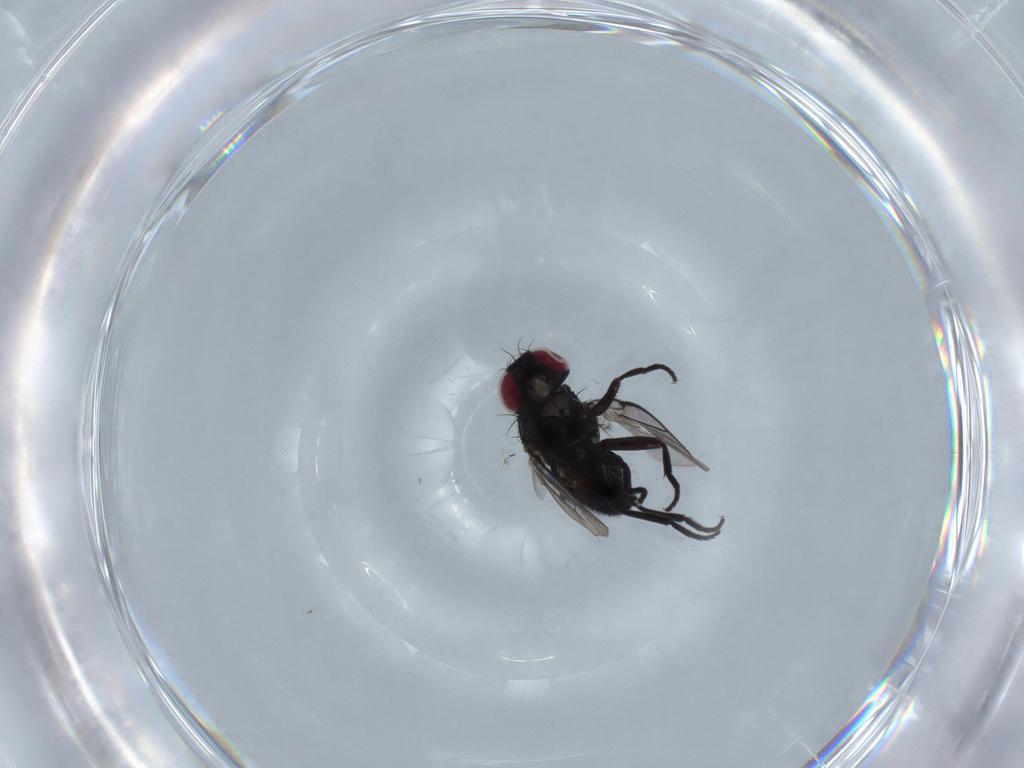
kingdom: Animalia
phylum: Arthropoda
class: Insecta
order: Diptera
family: Agromyzidae
